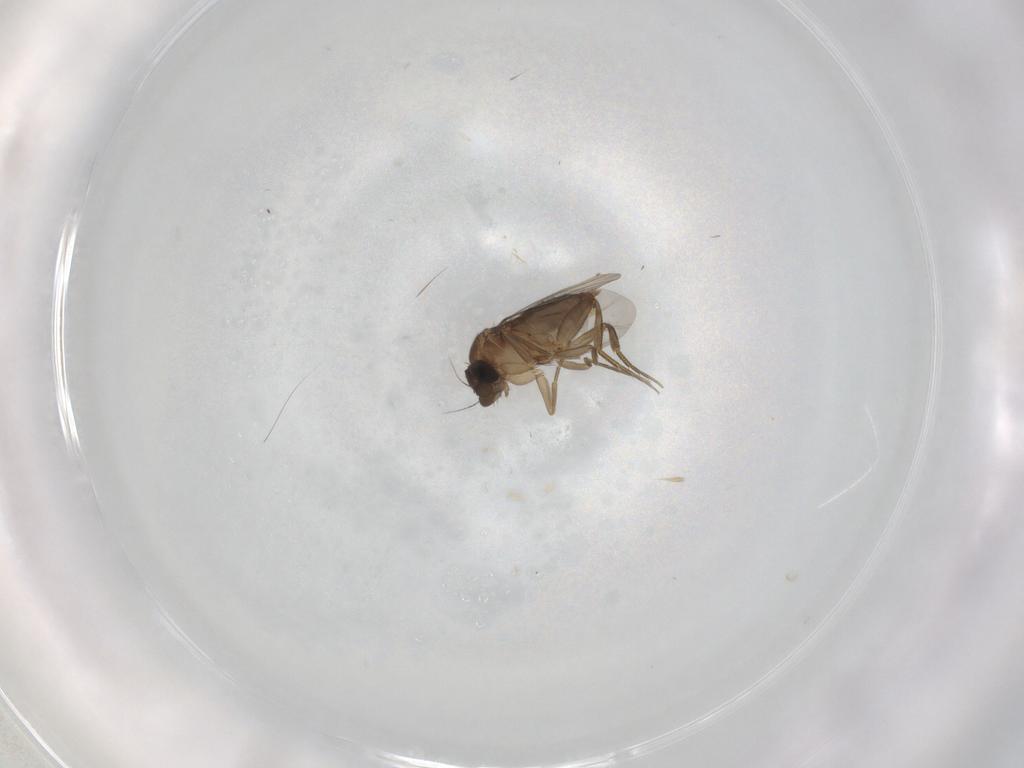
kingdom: Animalia
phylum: Arthropoda
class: Insecta
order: Diptera
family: Phoridae
